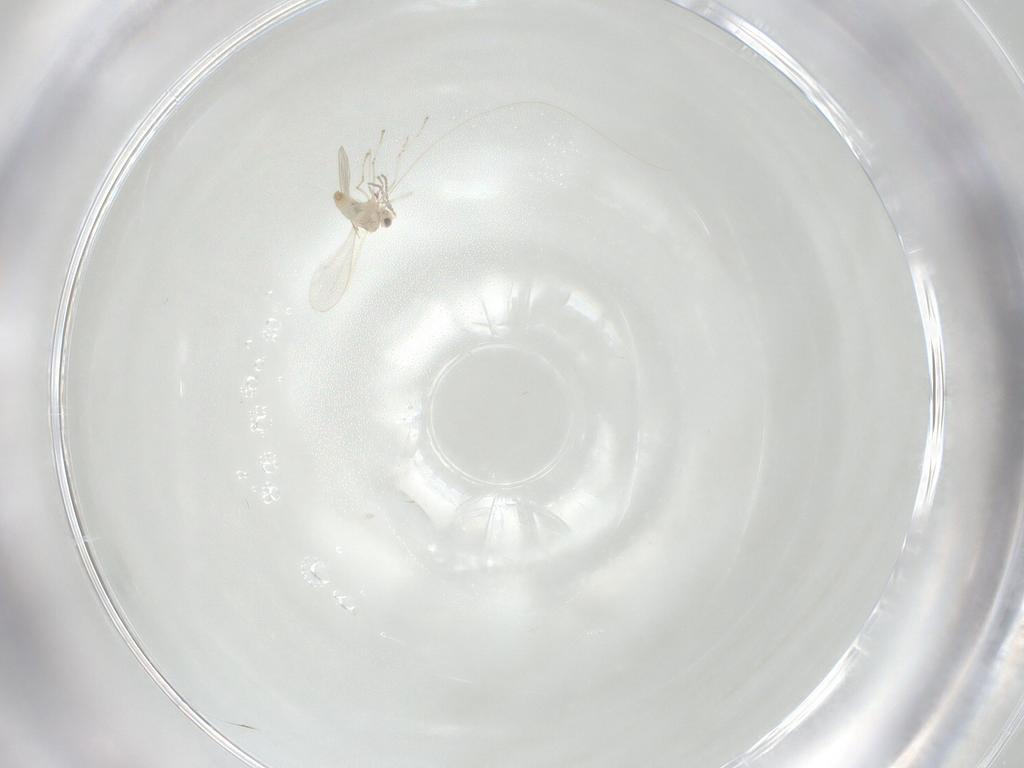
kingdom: Animalia
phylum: Arthropoda
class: Insecta
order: Diptera
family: Cecidomyiidae
